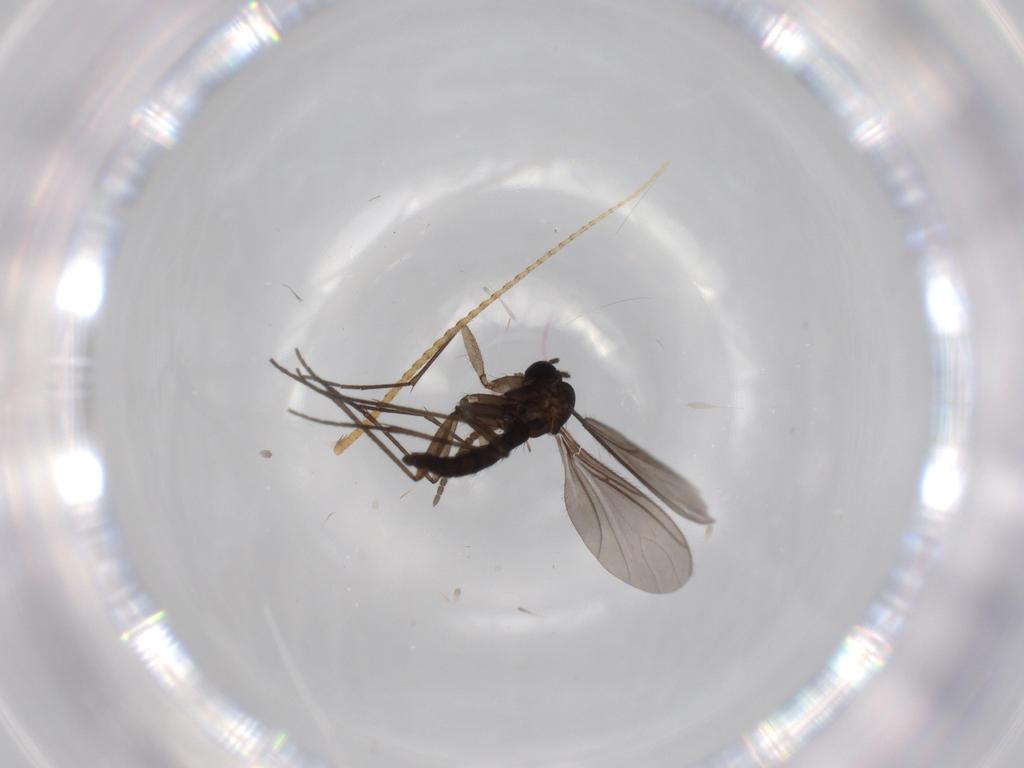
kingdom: Animalia
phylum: Arthropoda
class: Insecta
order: Diptera
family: Sciaridae
